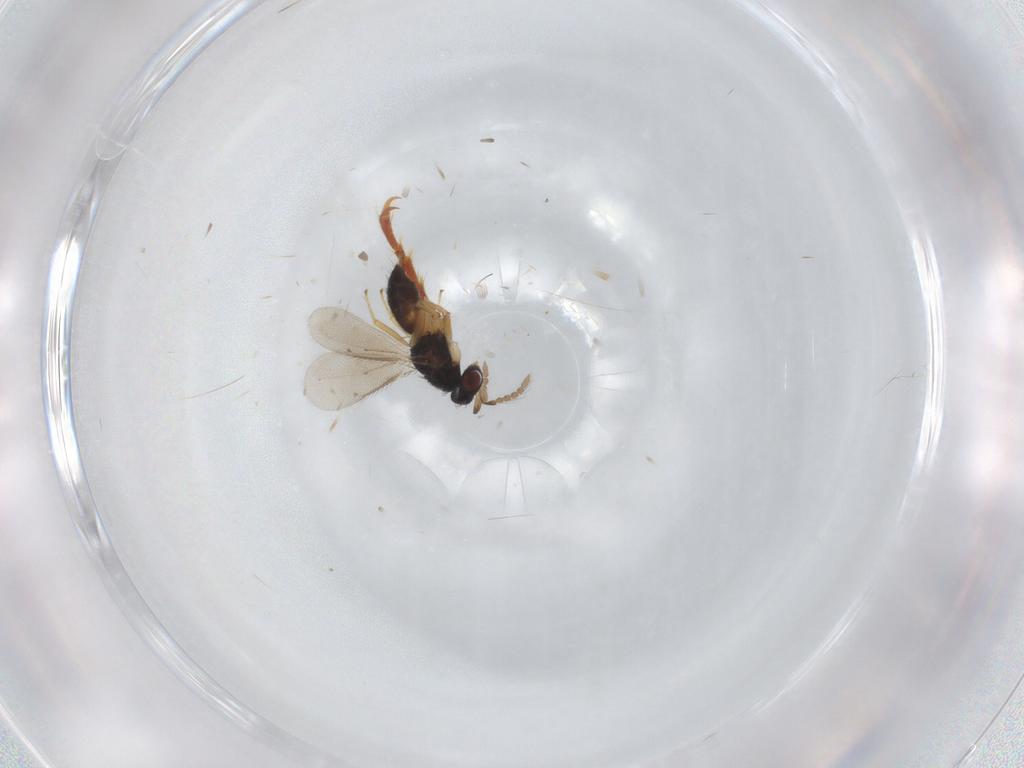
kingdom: Animalia
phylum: Arthropoda
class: Insecta
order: Hymenoptera
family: Eulophidae
